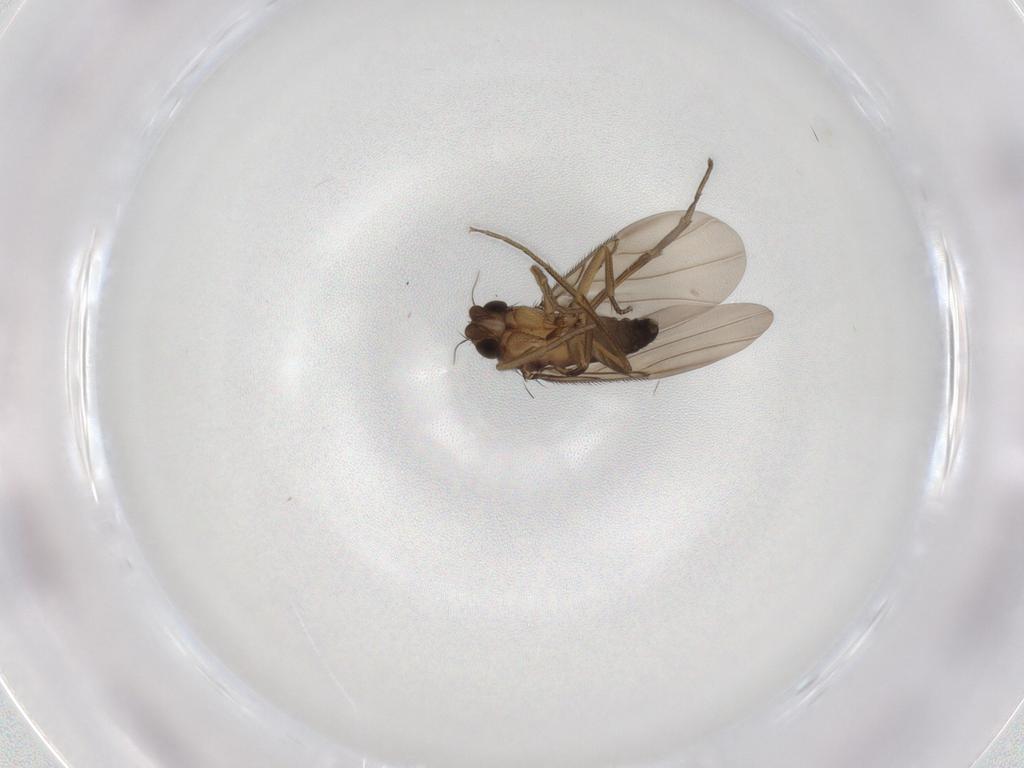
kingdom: Animalia
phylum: Arthropoda
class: Insecta
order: Diptera
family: Phoridae
